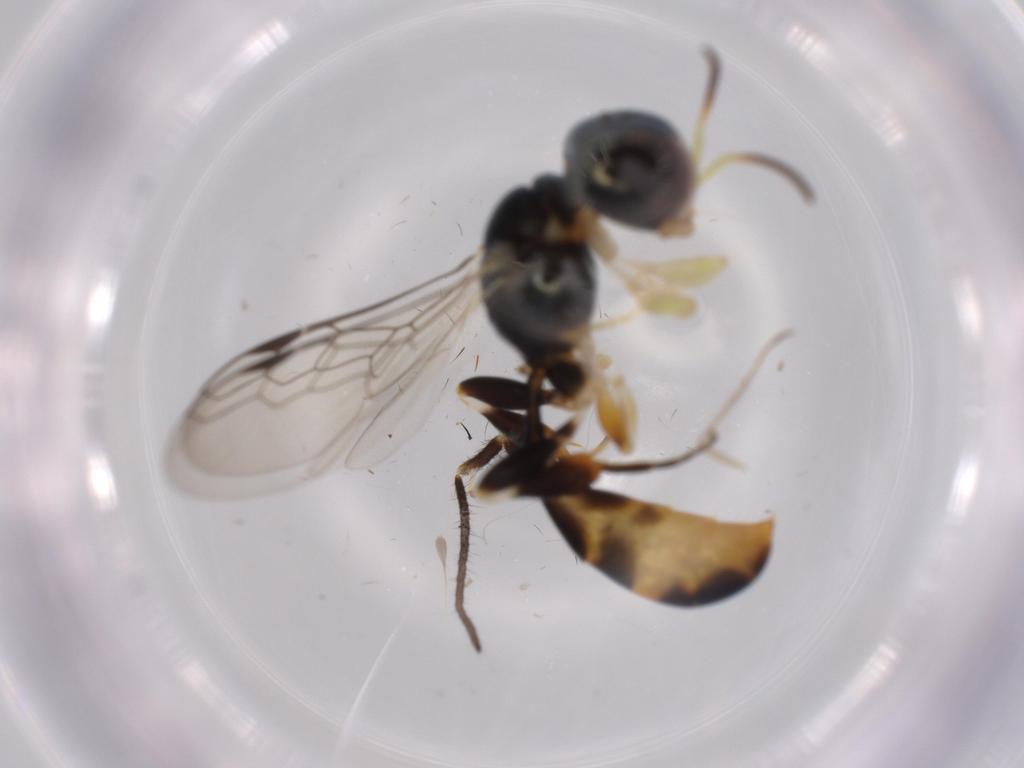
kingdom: Animalia
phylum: Arthropoda
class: Insecta
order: Hymenoptera
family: Crabronidae
